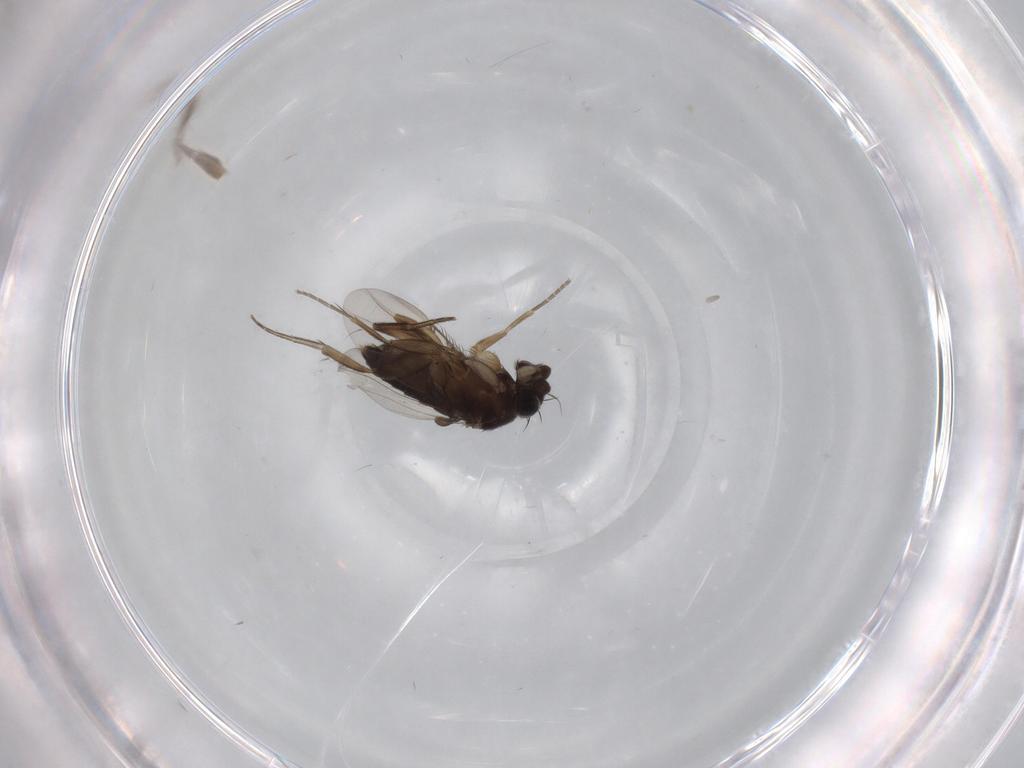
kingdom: Animalia
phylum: Arthropoda
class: Insecta
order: Diptera
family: Phoridae
